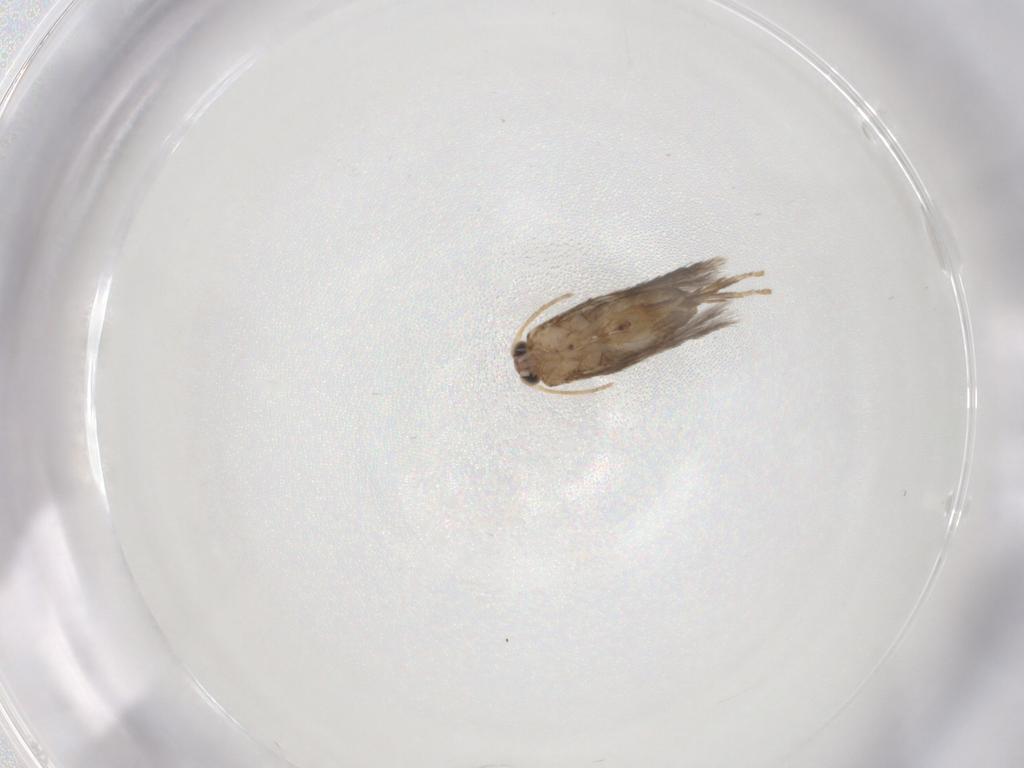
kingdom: Animalia
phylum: Arthropoda
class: Insecta
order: Lepidoptera
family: Nepticulidae
